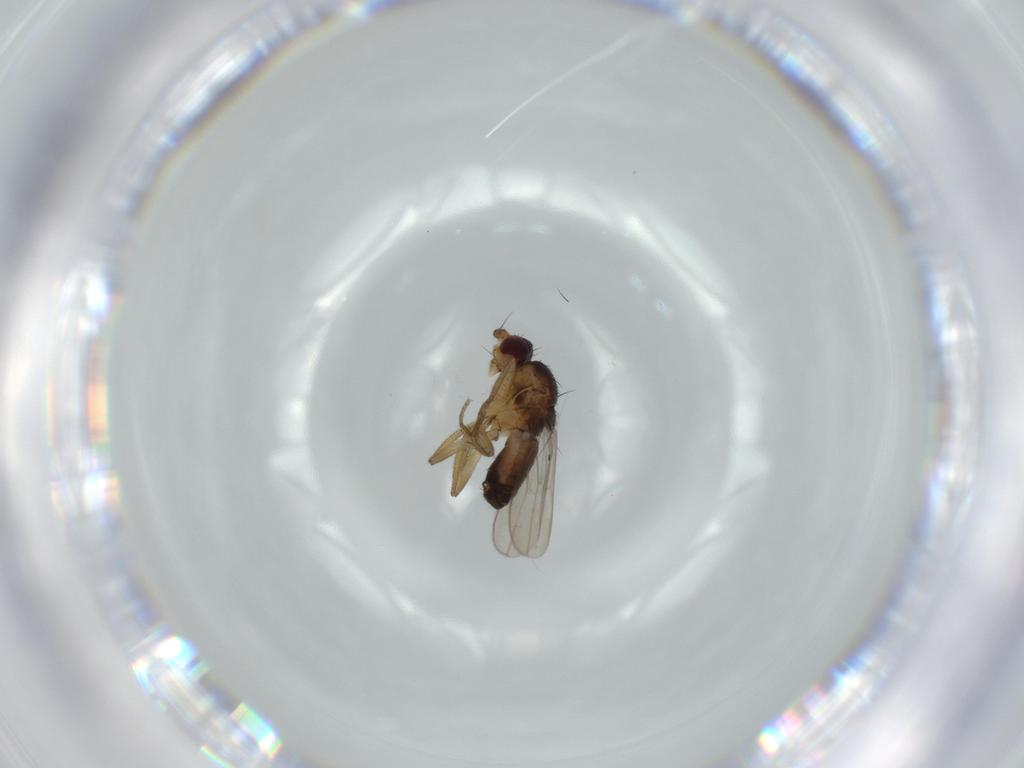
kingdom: Animalia
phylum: Arthropoda
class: Insecta
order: Diptera
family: Sphaeroceridae
